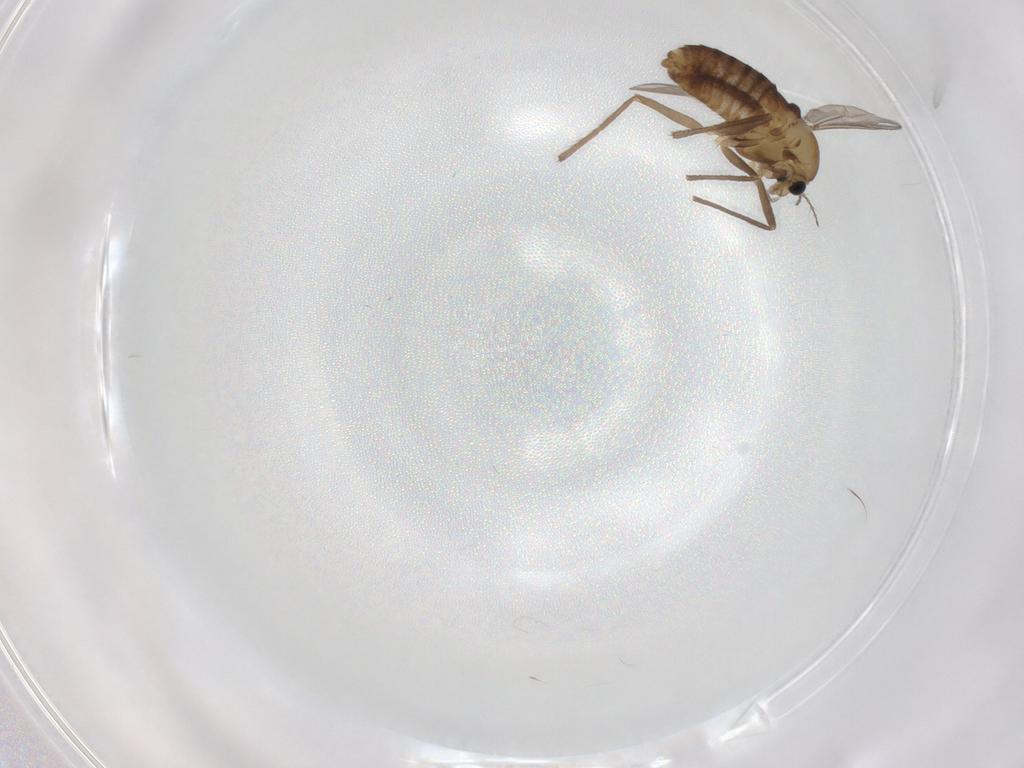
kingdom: Animalia
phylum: Arthropoda
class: Insecta
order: Diptera
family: Chironomidae
